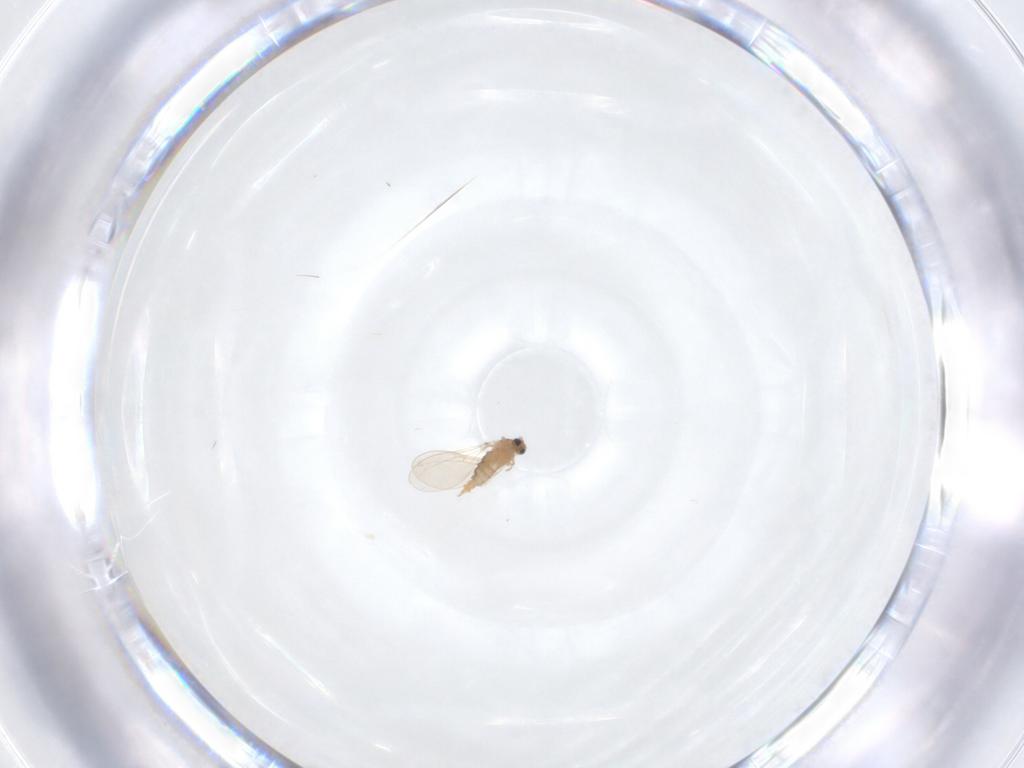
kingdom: Animalia
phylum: Arthropoda
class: Insecta
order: Diptera
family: Cecidomyiidae
